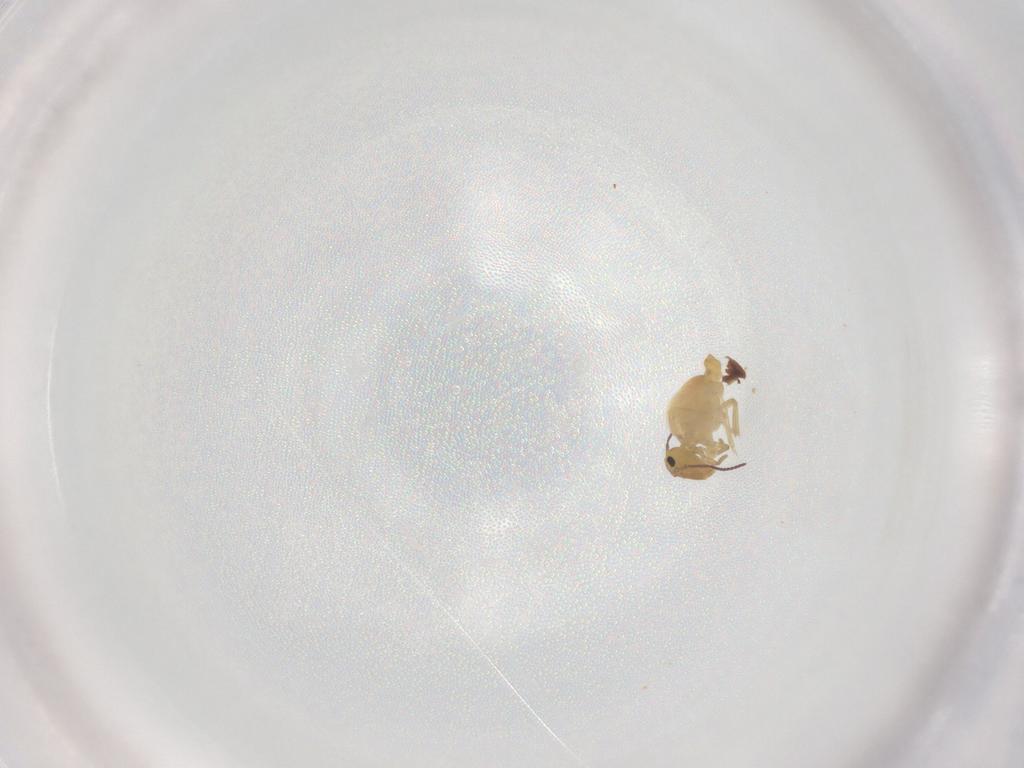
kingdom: Animalia
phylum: Arthropoda
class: Collembola
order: Symphypleona
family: Bourletiellidae
